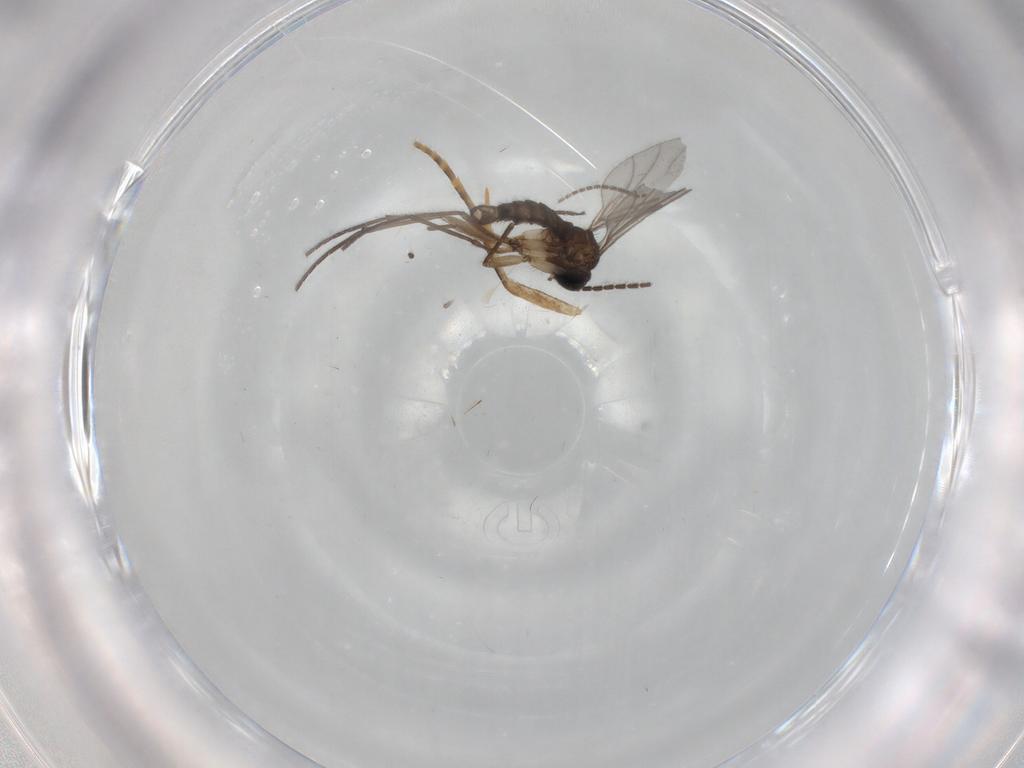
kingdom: Animalia
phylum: Arthropoda
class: Insecta
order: Diptera
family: Sciaridae
